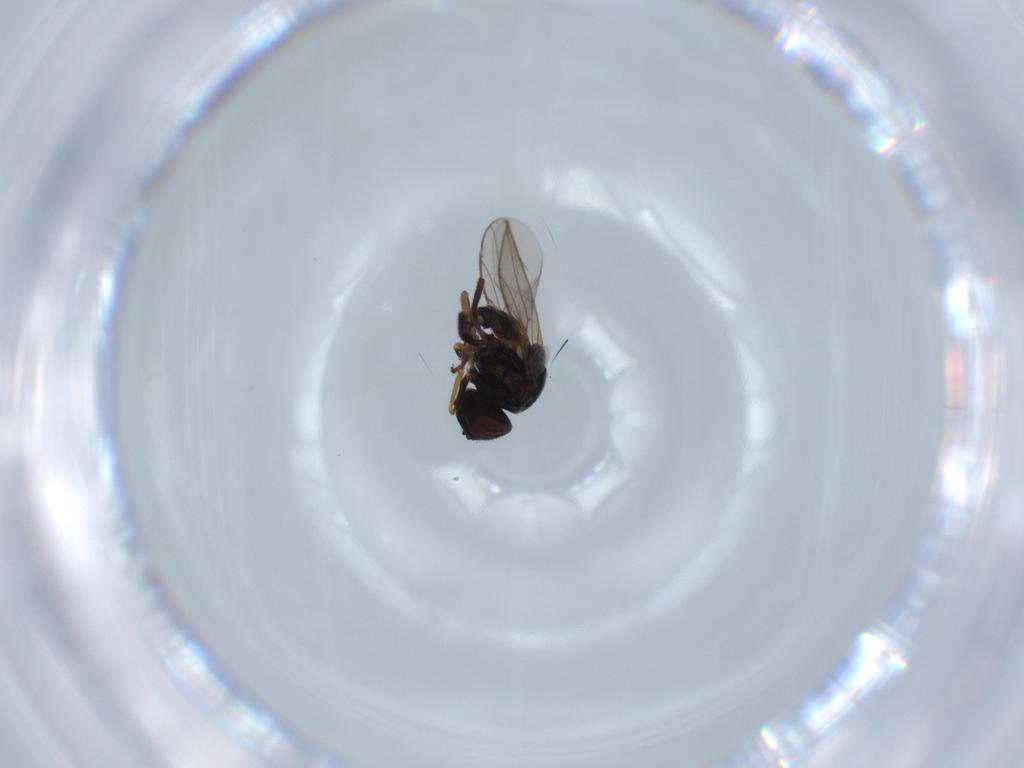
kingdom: Animalia
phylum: Arthropoda
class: Insecta
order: Diptera
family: Chloropidae
